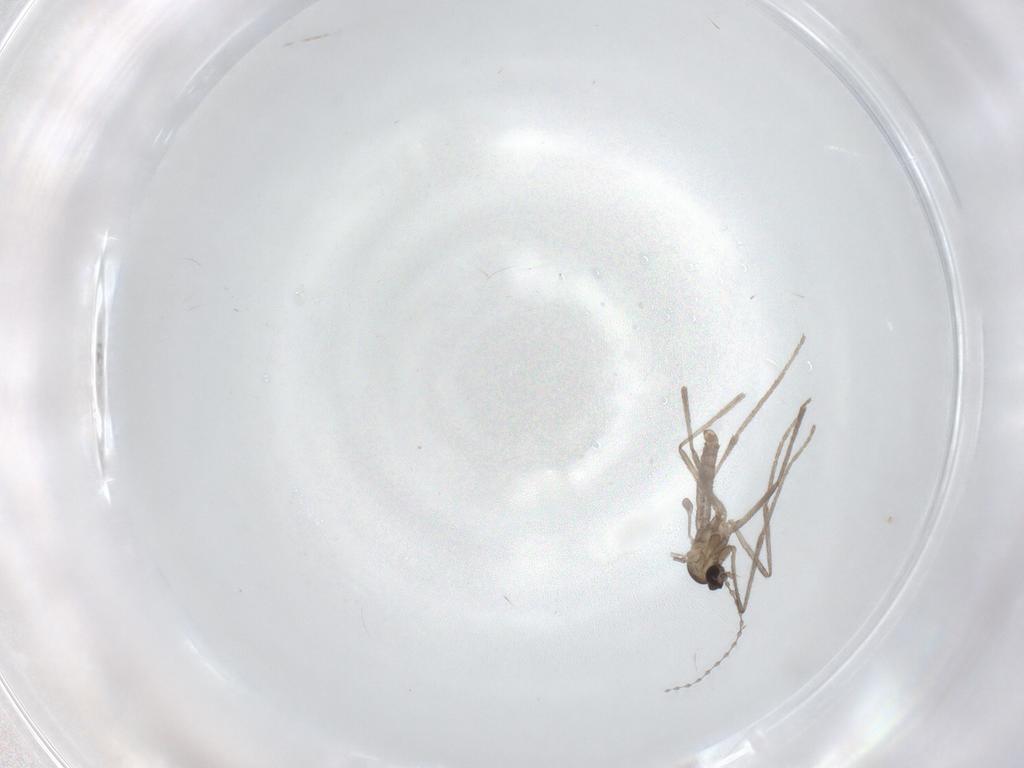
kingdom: Animalia
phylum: Arthropoda
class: Insecta
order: Diptera
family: Cecidomyiidae
